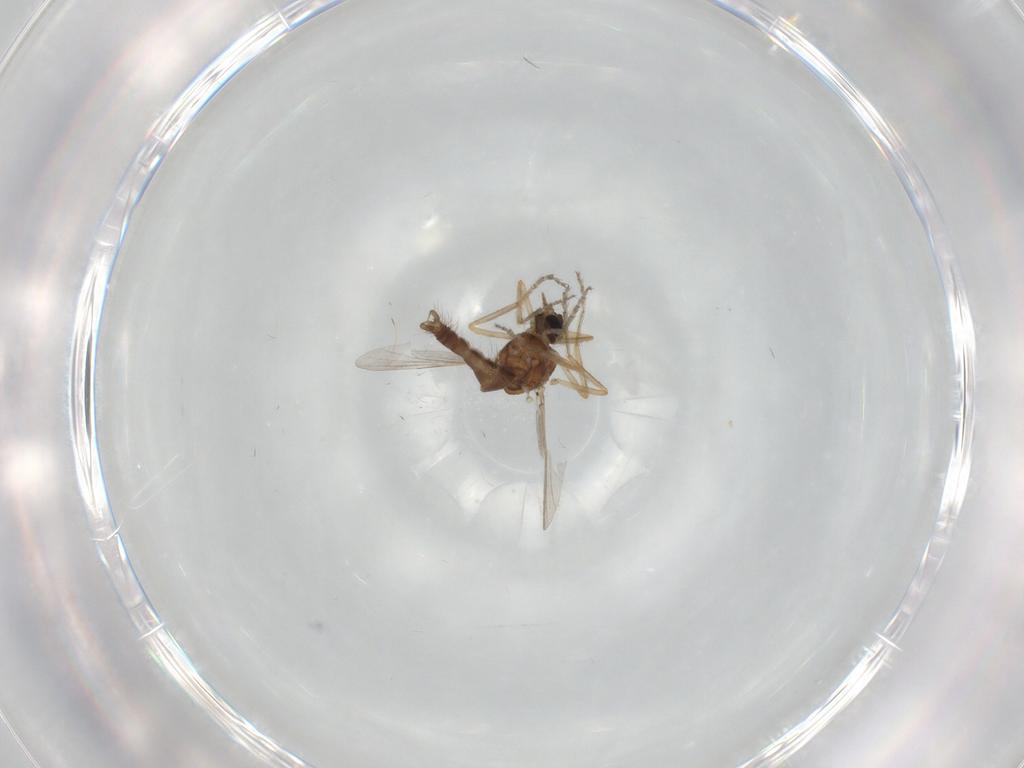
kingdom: Animalia
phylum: Arthropoda
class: Insecta
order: Diptera
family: Ceratopogonidae
